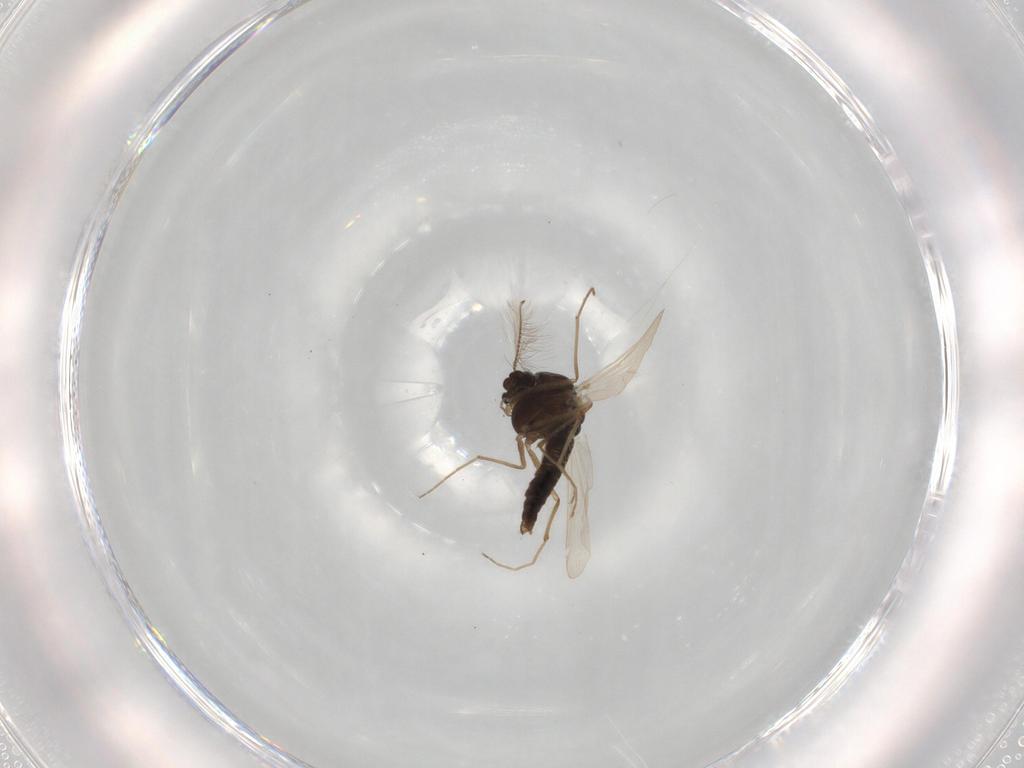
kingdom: Animalia
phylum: Arthropoda
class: Insecta
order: Diptera
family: Chironomidae
